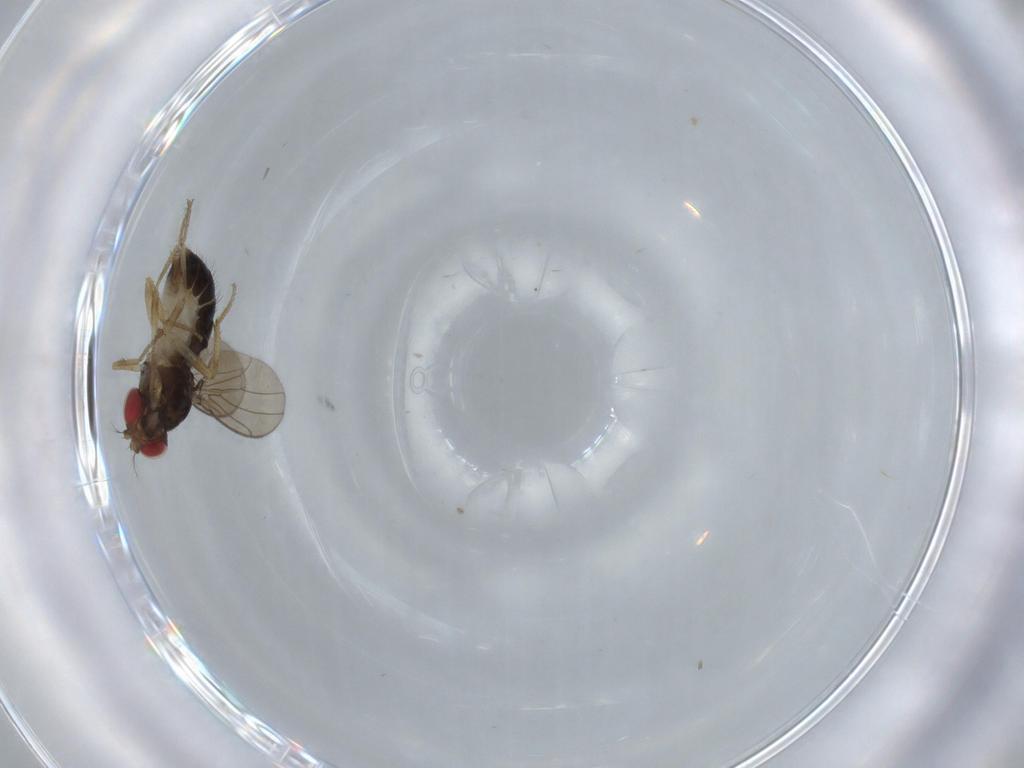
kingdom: Animalia
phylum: Arthropoda
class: Insecta
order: Diptera
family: Drosophilidae
